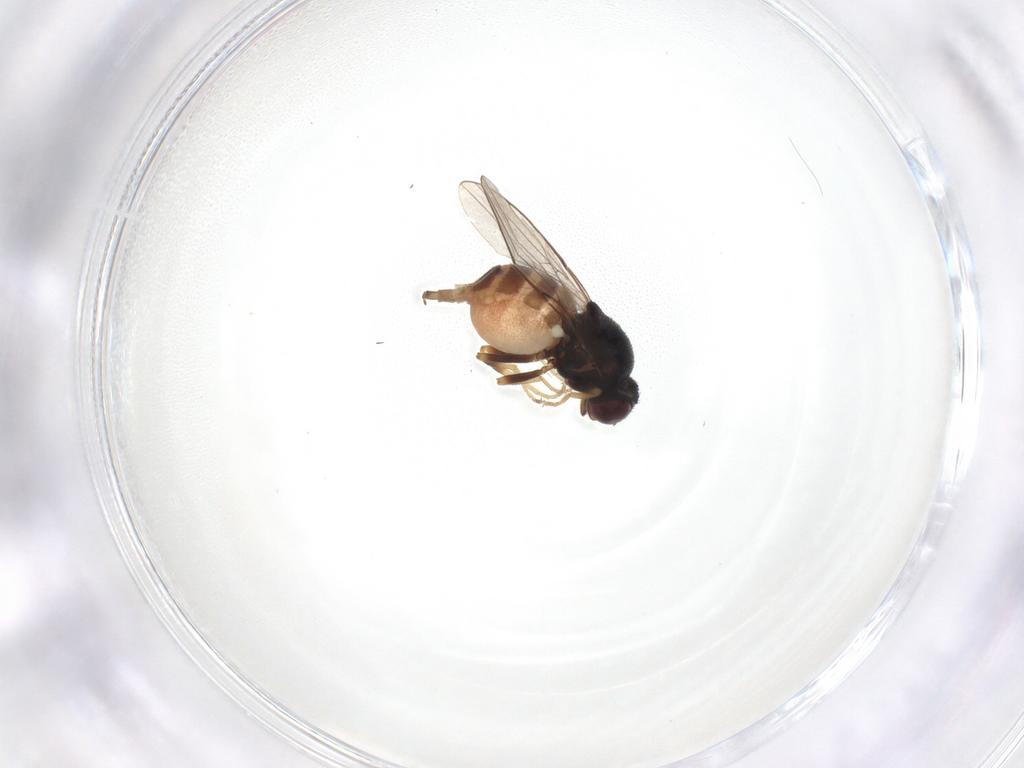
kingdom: Animalia
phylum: Arthropoda
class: Insecta
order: Diptera
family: Chloropidae
